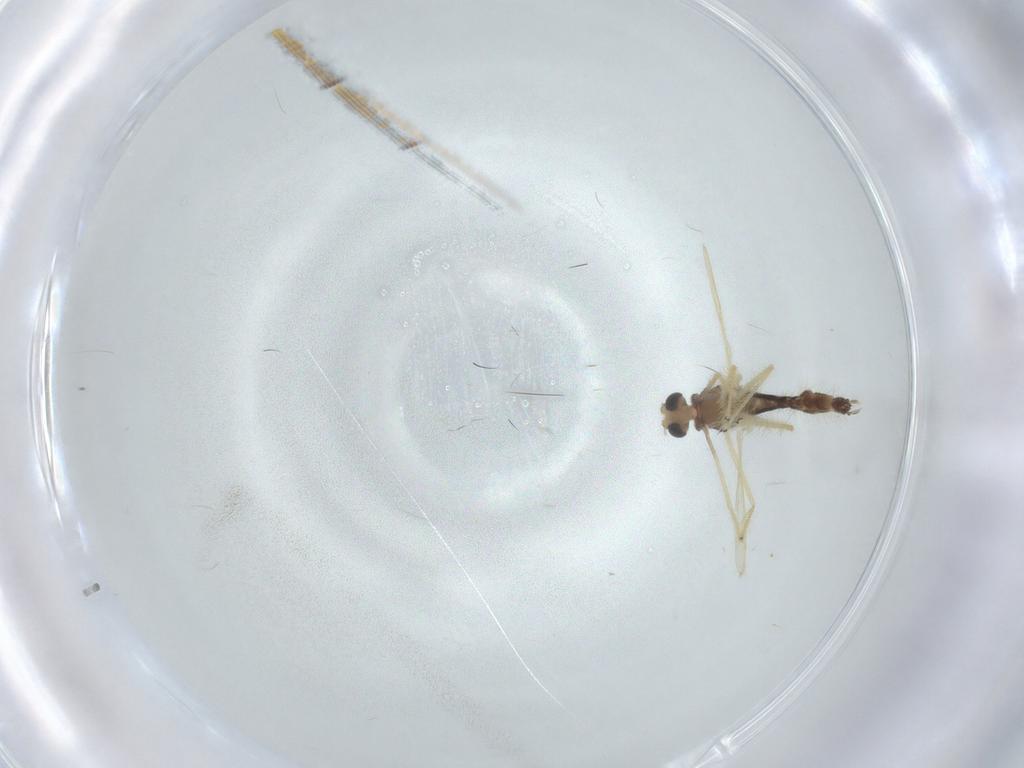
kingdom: Animalia
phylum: Arthropoda
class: Insecta
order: Diptera
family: Chironomidae
